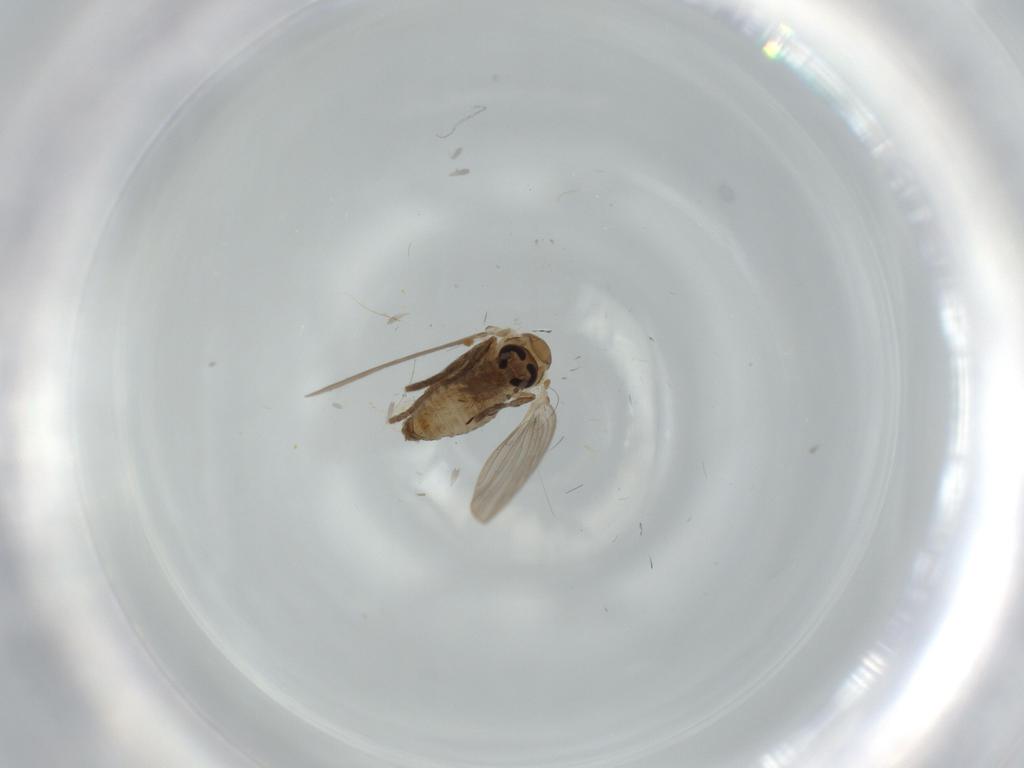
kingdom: Animalia
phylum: Arthropoda
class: Insecta
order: Diptera
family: Psychodidae
